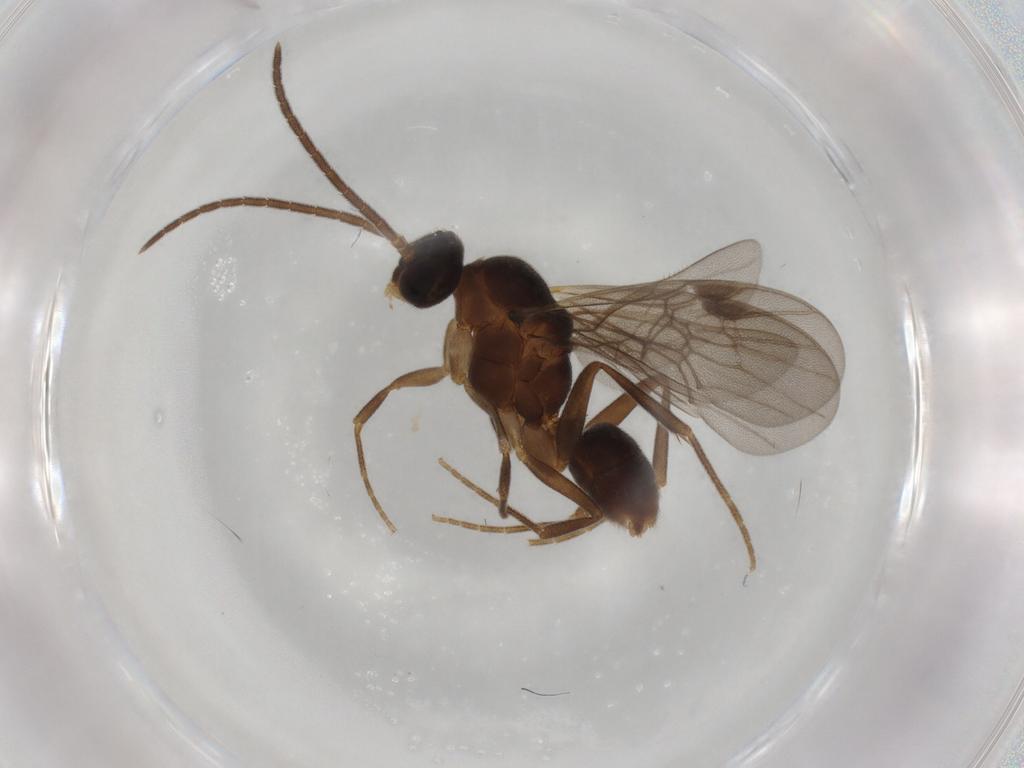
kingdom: Animalia
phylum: Arthropoda
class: Insecta
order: Hymenoptera
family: Formicidae
